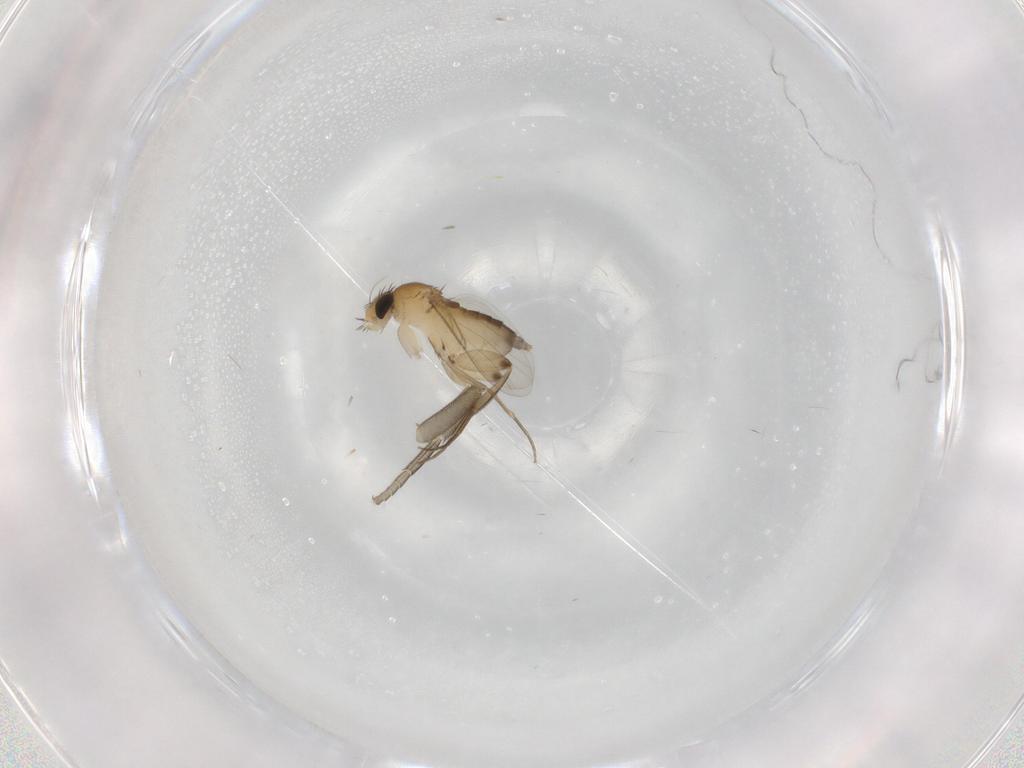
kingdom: Animalia
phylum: Arthropoda
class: Insecta
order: Diptera
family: Phoridae
